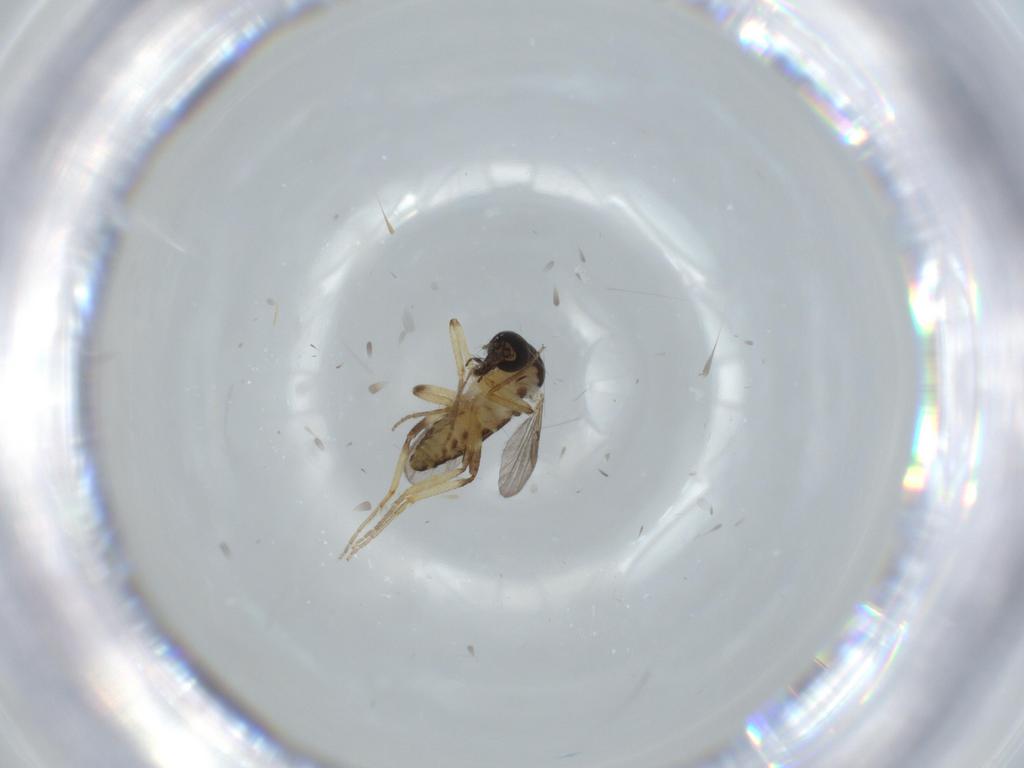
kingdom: Animalia
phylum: Arthropoda
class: Insecta
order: Diptera
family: Ceratopogonidae
